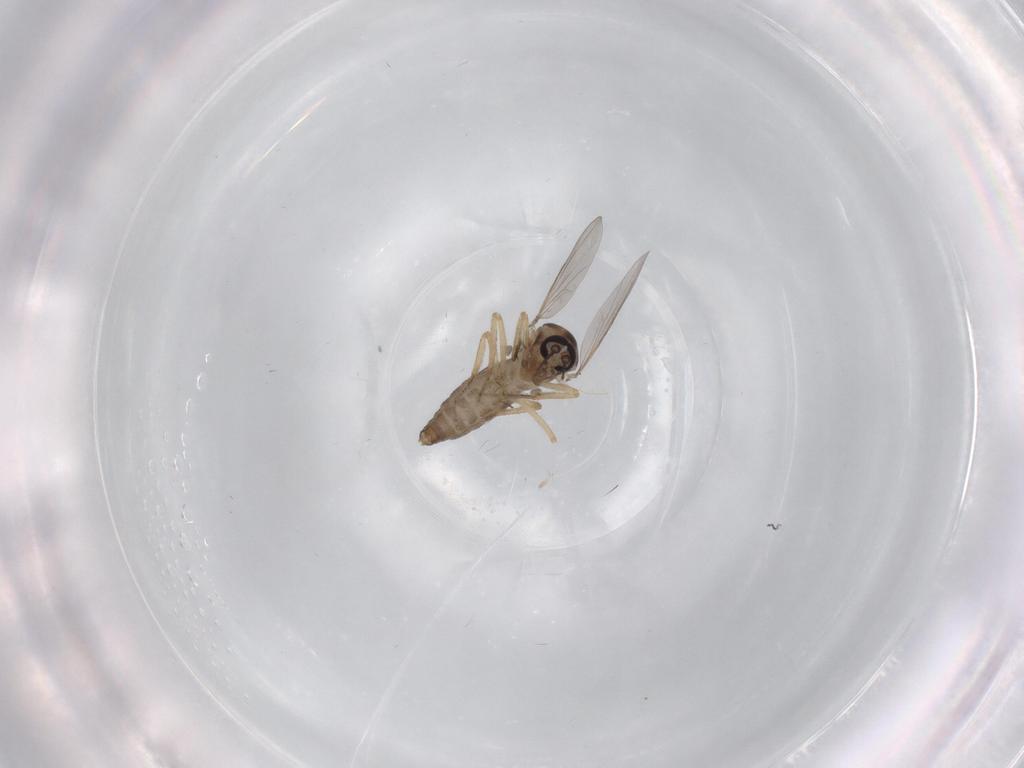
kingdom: Animalia
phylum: Arthropoda
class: Insecta
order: Diptera
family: Ceratopogonidae
